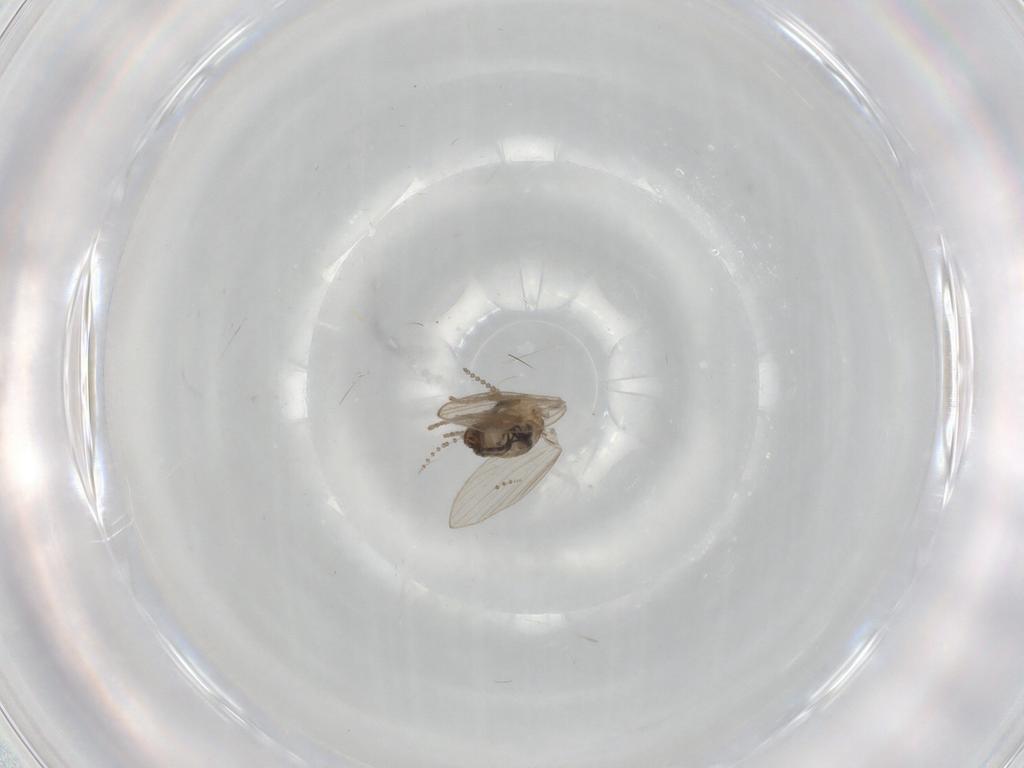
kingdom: Animalia
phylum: Arthropoda
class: Insecta
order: Diptera
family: Psychodidae
